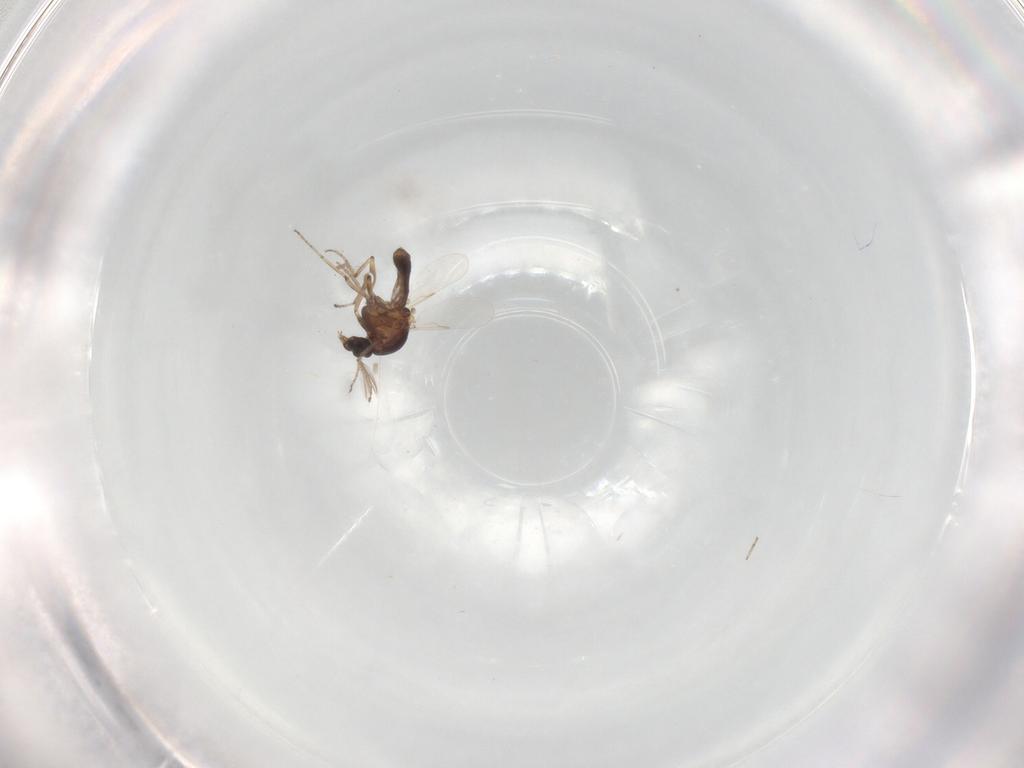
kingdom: Animalia
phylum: Arthropoda
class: Insecta
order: Diptera
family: Ceratopogonidae
